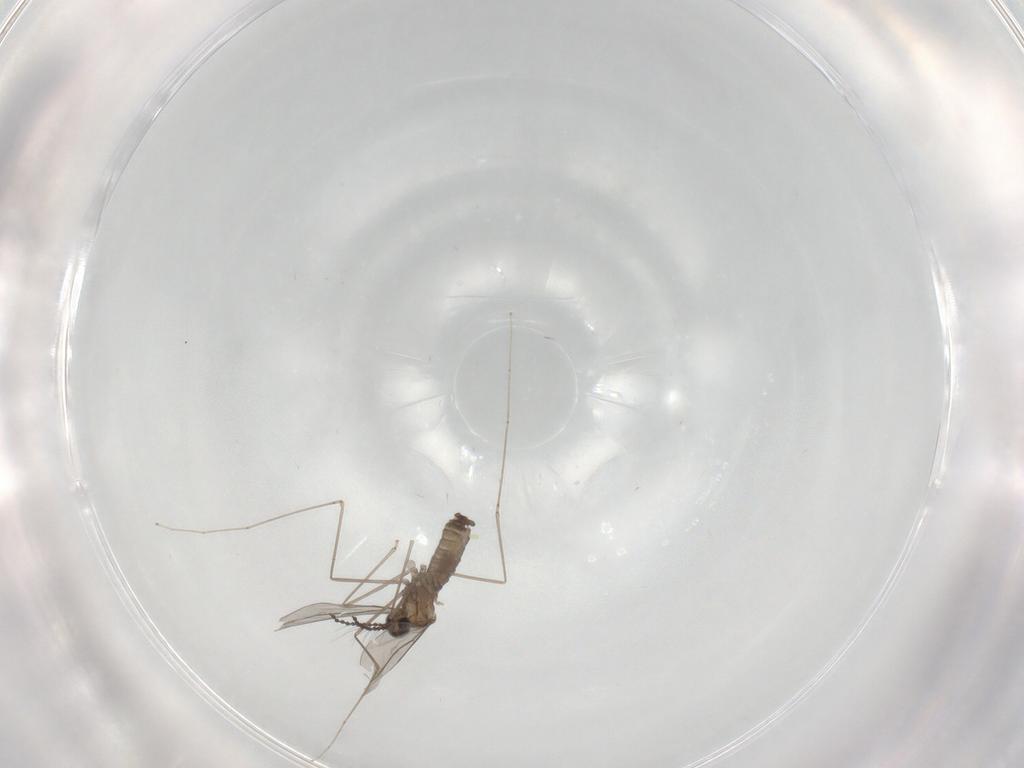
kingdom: Animalia
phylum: Arthropoda
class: Insecta
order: Diptera
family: Cecidomyiidae
